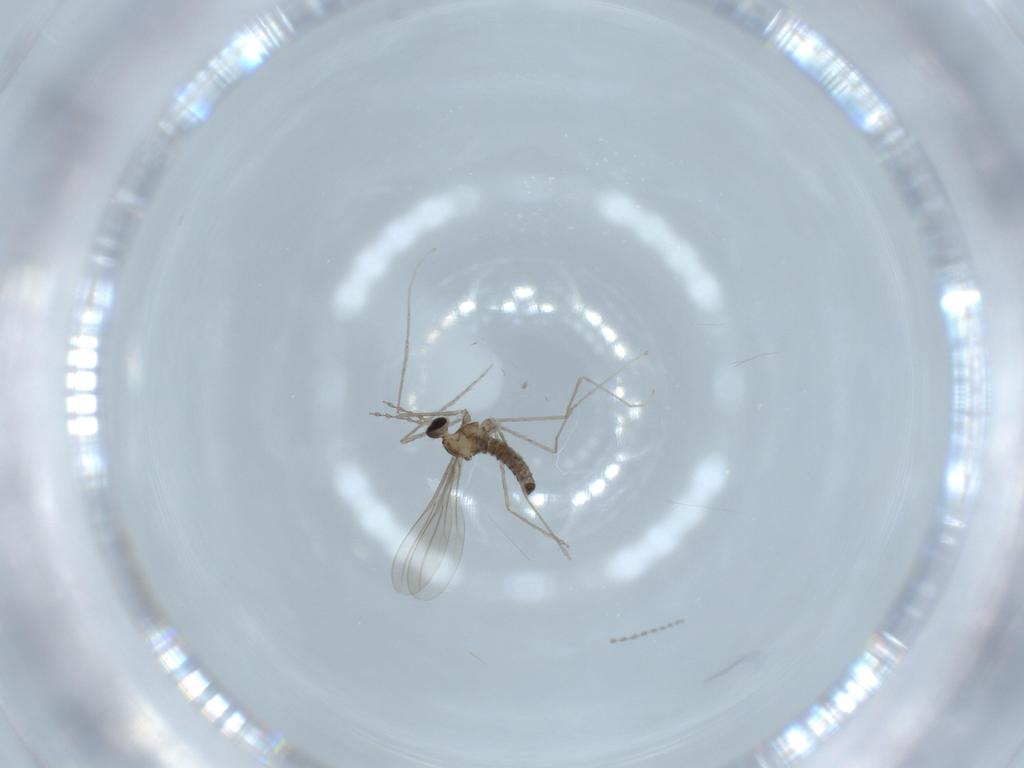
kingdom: Animalia
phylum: Arthropoda
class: Insecta
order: Diptera
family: Cecidomyiidae
